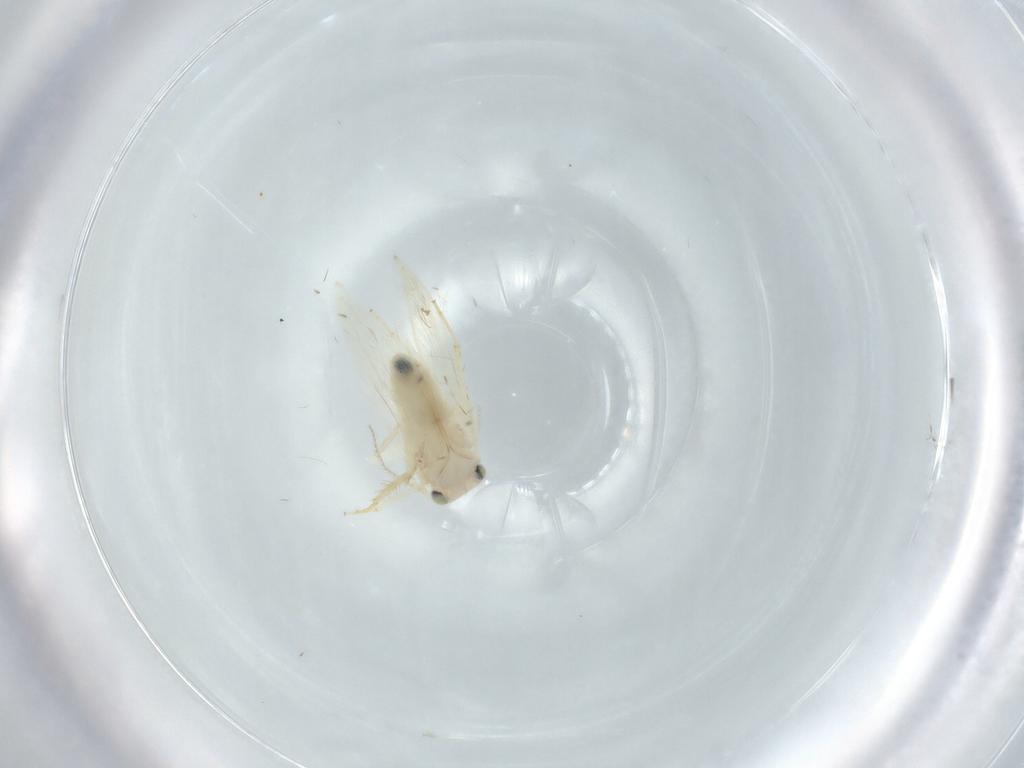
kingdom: Animalia
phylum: Arthropoda
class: Insecta
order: Psocodea
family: Lepidopsocidae
